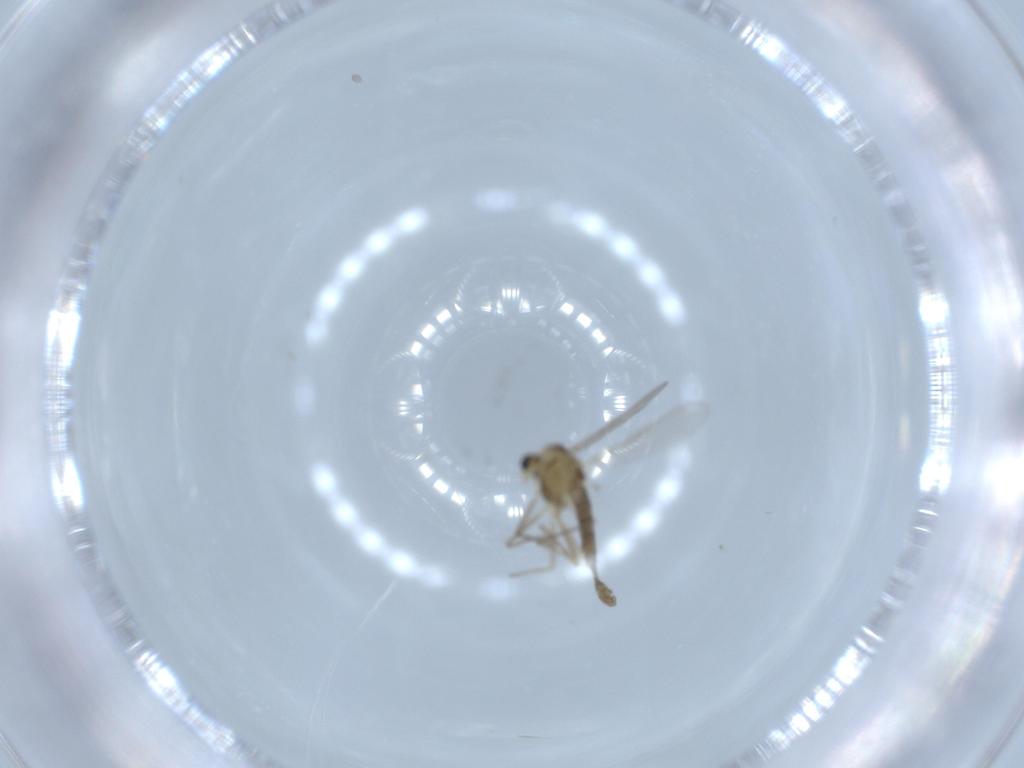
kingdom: Animalia
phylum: Arthropoda
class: Insecta
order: Diptera
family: Chironomidae
